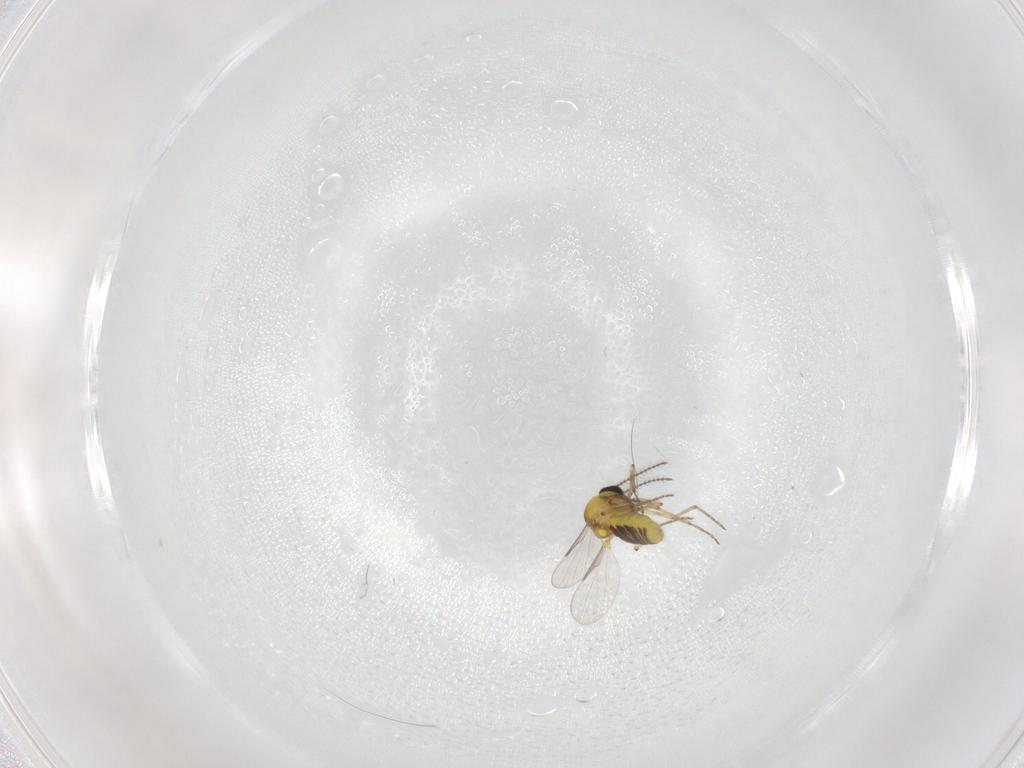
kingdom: Animalia
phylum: Arthropoda
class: Insecta
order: Diptera
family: Ceratopogonidae
